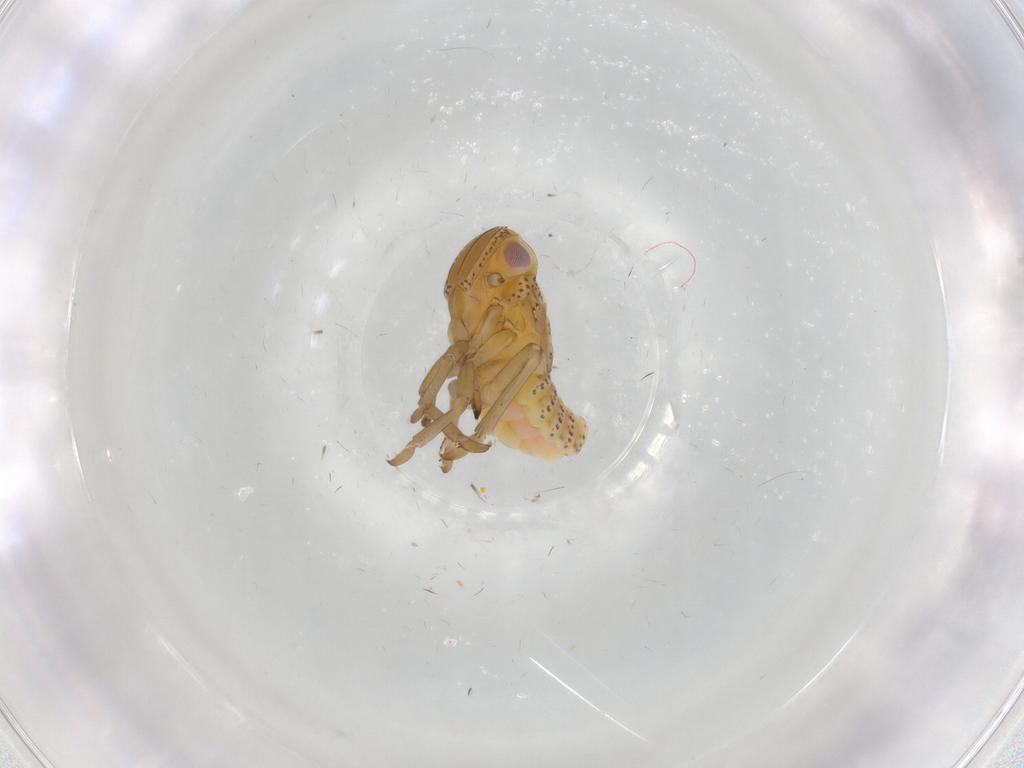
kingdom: Animalia
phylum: Arthropoda
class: Insecta
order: Hemiptera
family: Tropiduchidae
